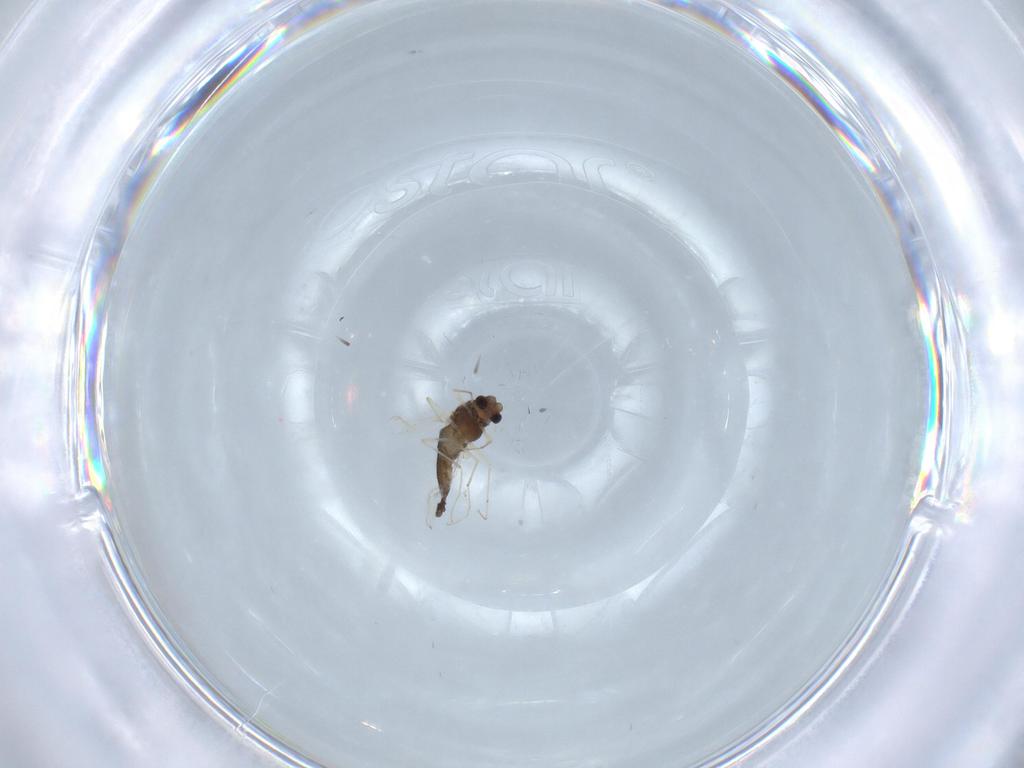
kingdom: Animalia
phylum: Arthropoda
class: Insecta
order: Diptera
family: Chironomidae
